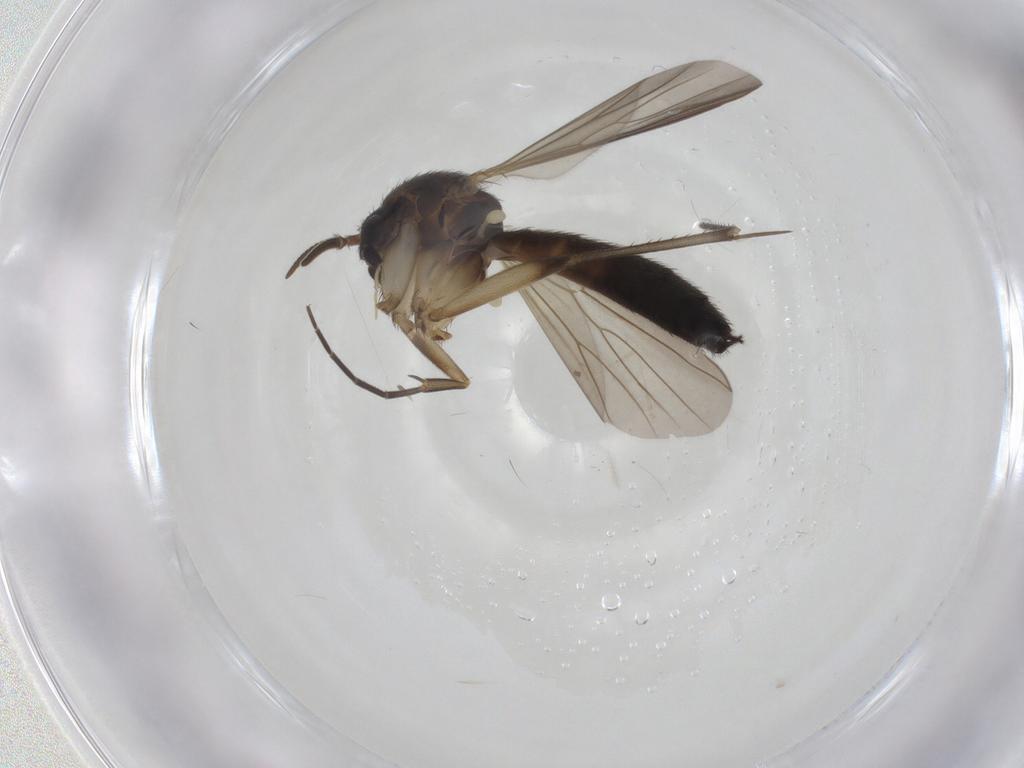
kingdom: Animalia
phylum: Arthropoda
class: Insecta
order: Diptera
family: Mycetophilidae
